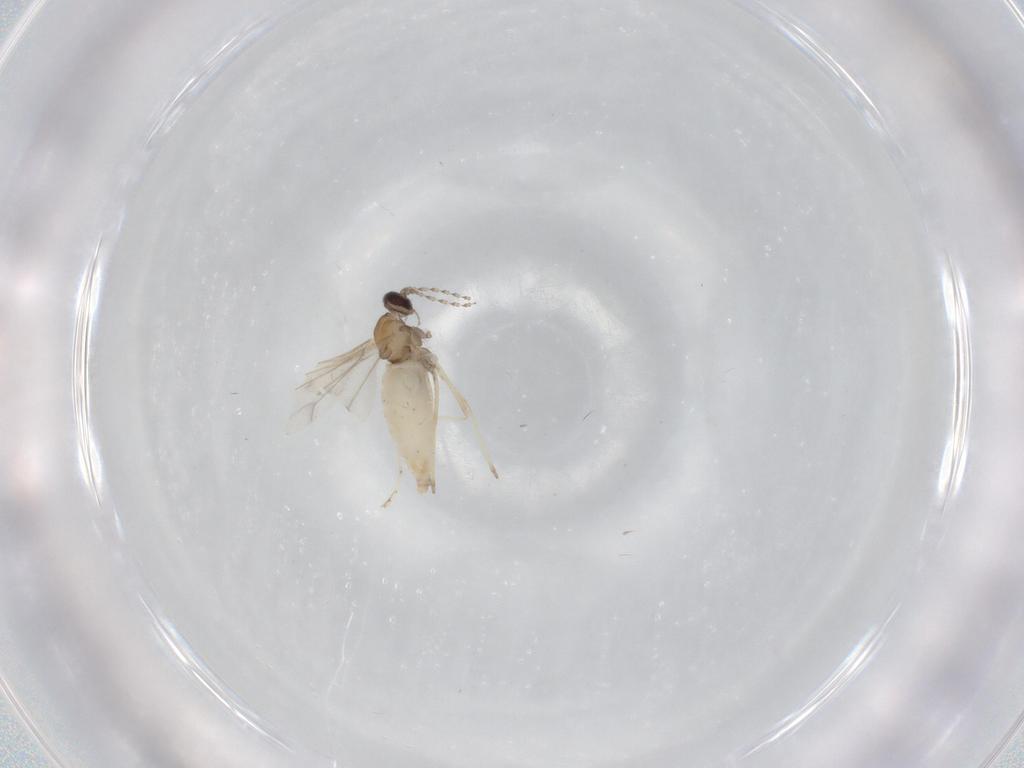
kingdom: Animalia
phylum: Arthropoda
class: Insecta
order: Diptera
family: Cecidomyiidae
